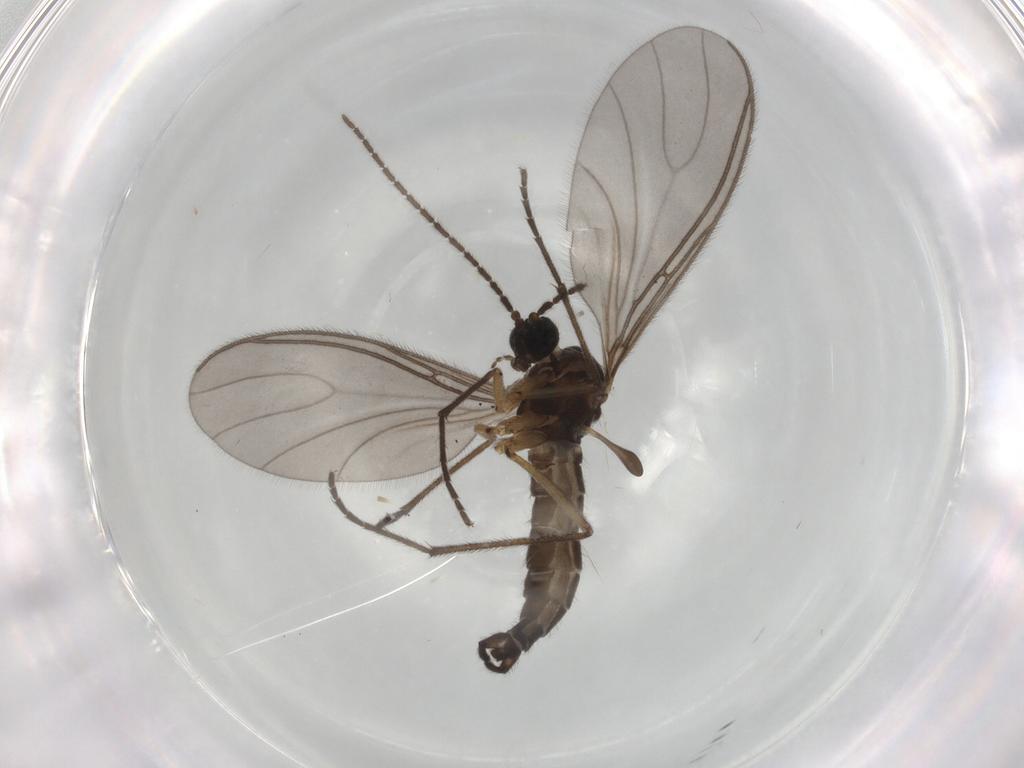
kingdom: Animalia
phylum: Arthropoda
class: Insecta
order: Diptera
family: Sciaridae
